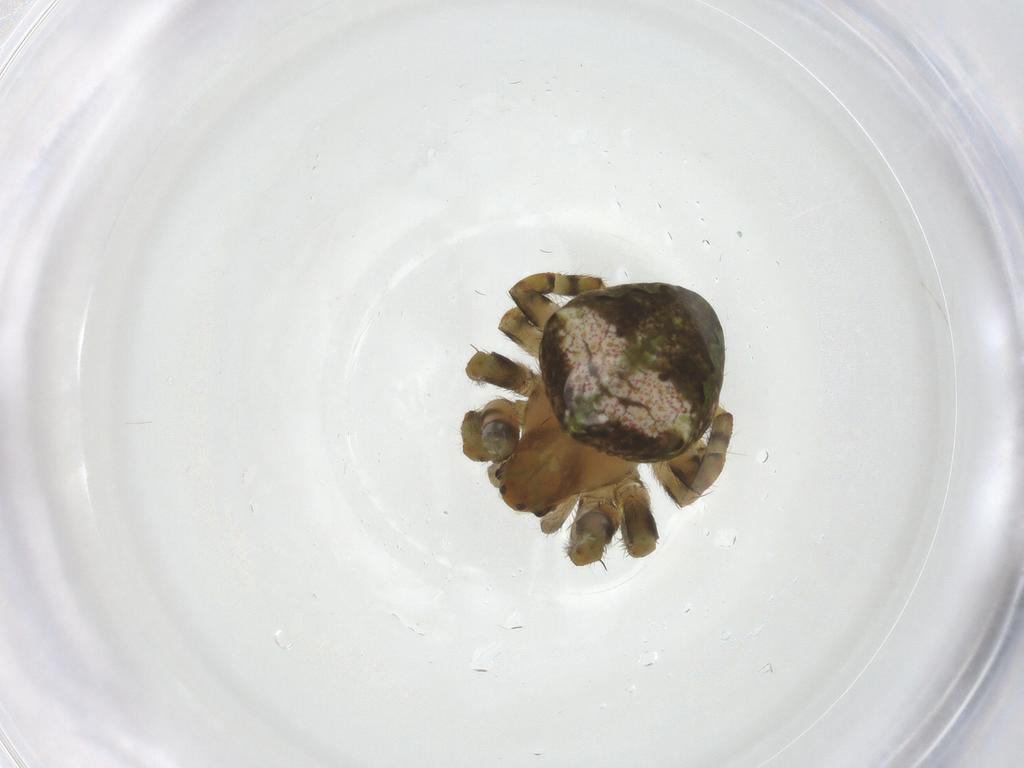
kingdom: Animalia
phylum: Arthropoda
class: Arachnida
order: Araneae
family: Araneidae
